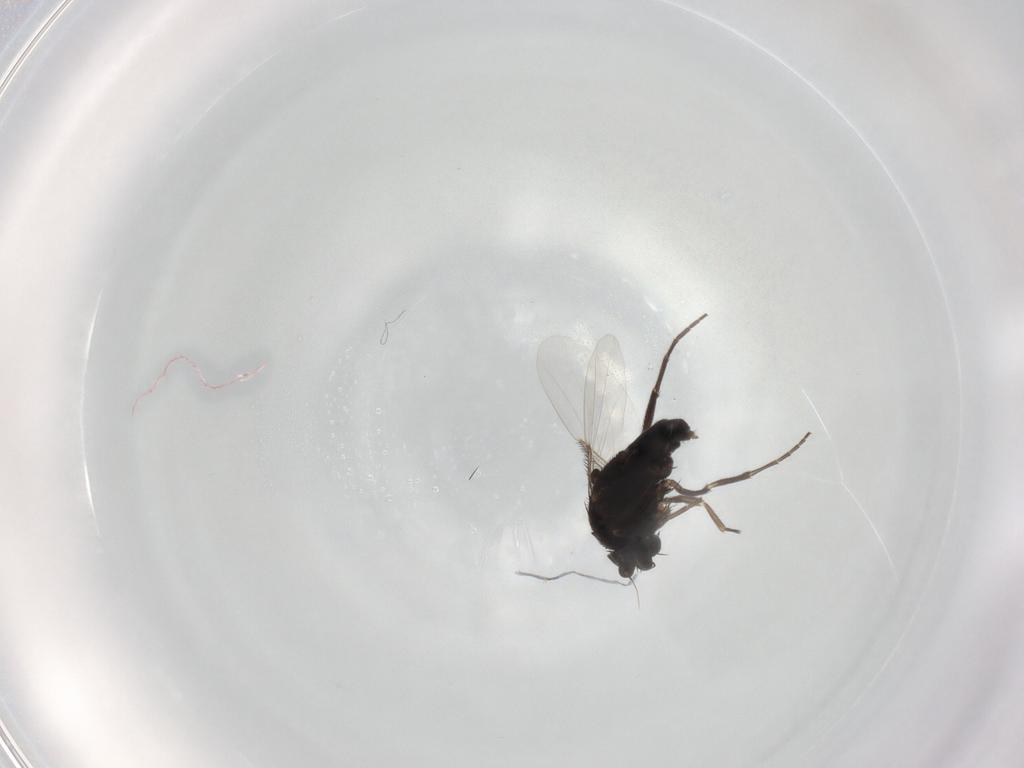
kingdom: Animalia
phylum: Arthropoda
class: Insecta
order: Diptera
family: Phoridae
